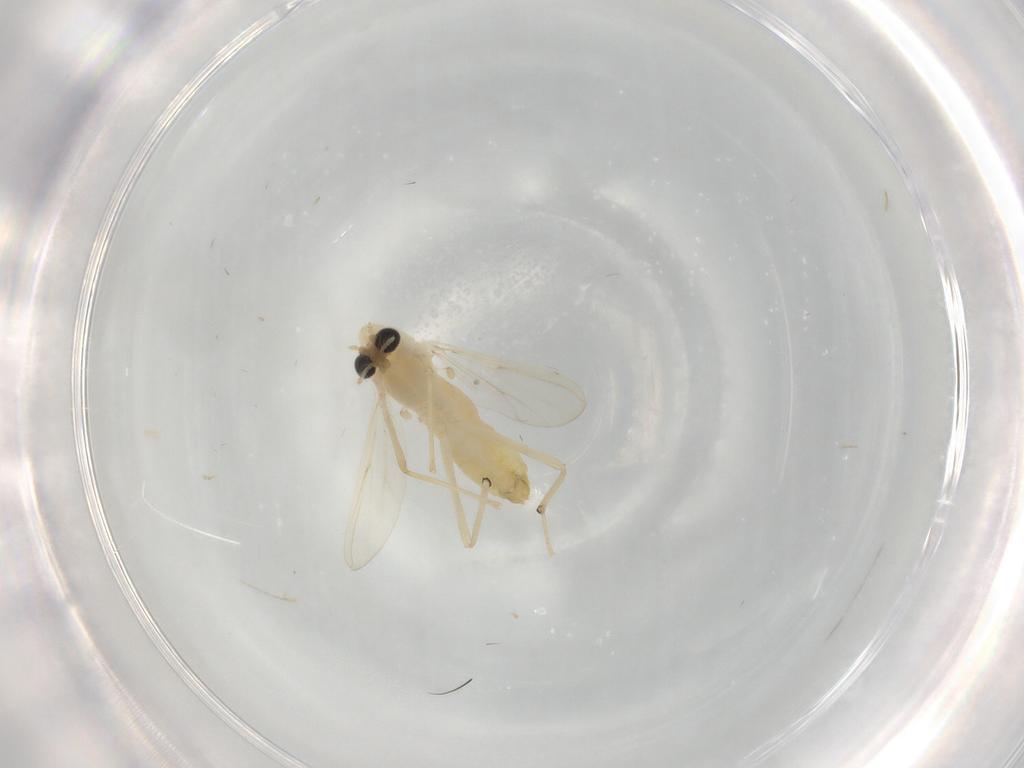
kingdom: Animalia
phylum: Arthropoda
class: Insecta
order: Diptera
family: Chironomidae
